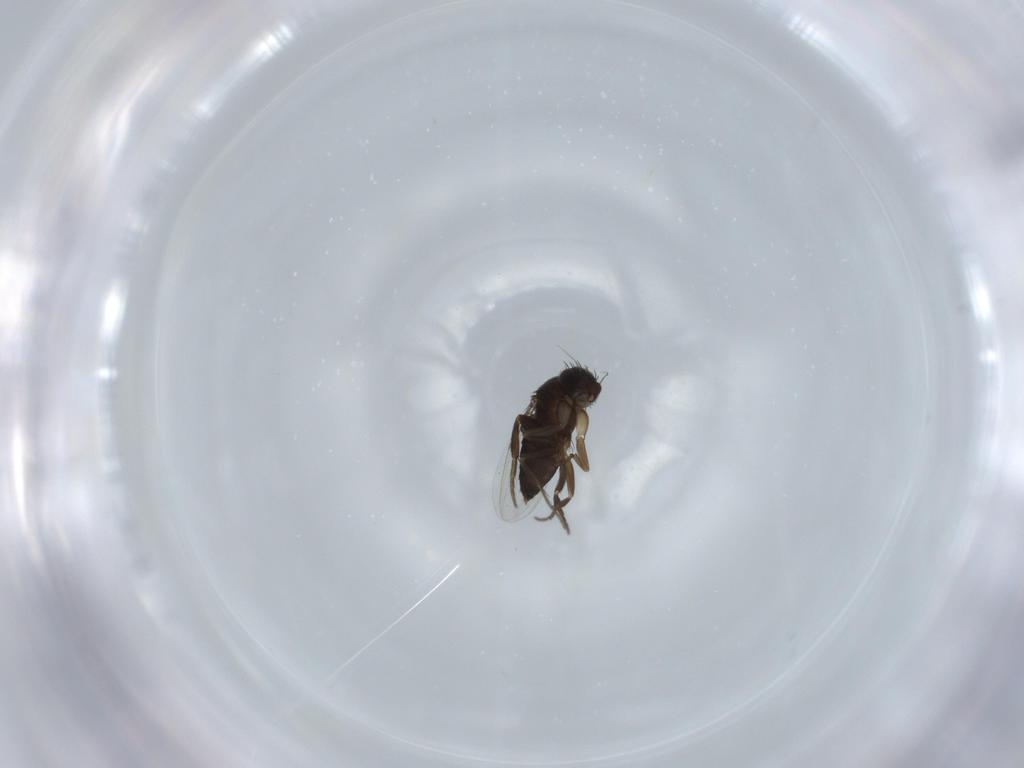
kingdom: Animalia
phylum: Arthropoda
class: Insecta
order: Diptera
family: Phoridae
